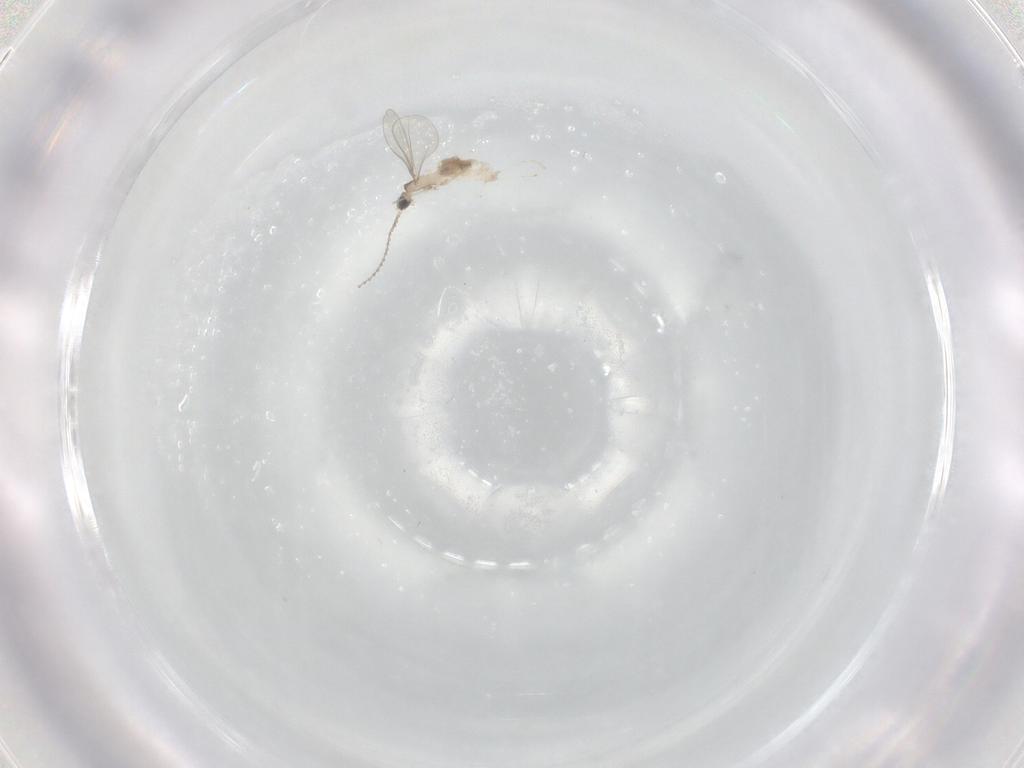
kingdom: Animalia
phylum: Arthropoda
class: Insecta
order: Diptera
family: Cecidomyiidae
